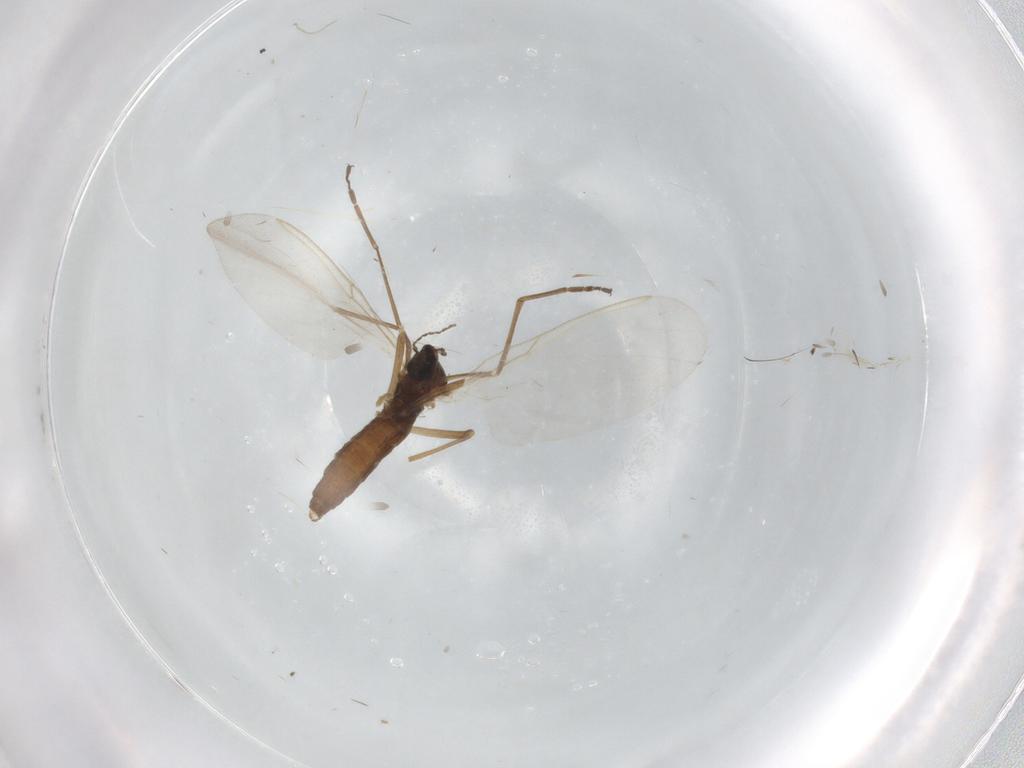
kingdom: Animalia
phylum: Arthropoda
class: Insecta
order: Diptera
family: Cecidomyiidae
